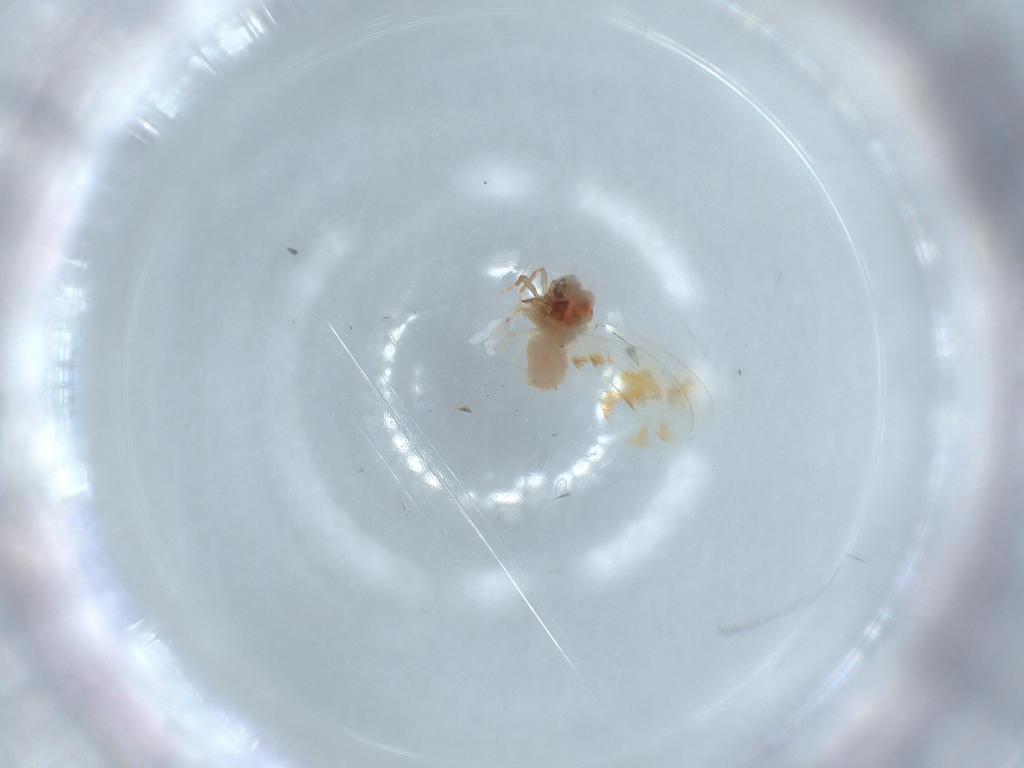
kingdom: Animalia
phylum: Arthropoda
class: Insecta
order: Hemiptera
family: Aleyrodidae
